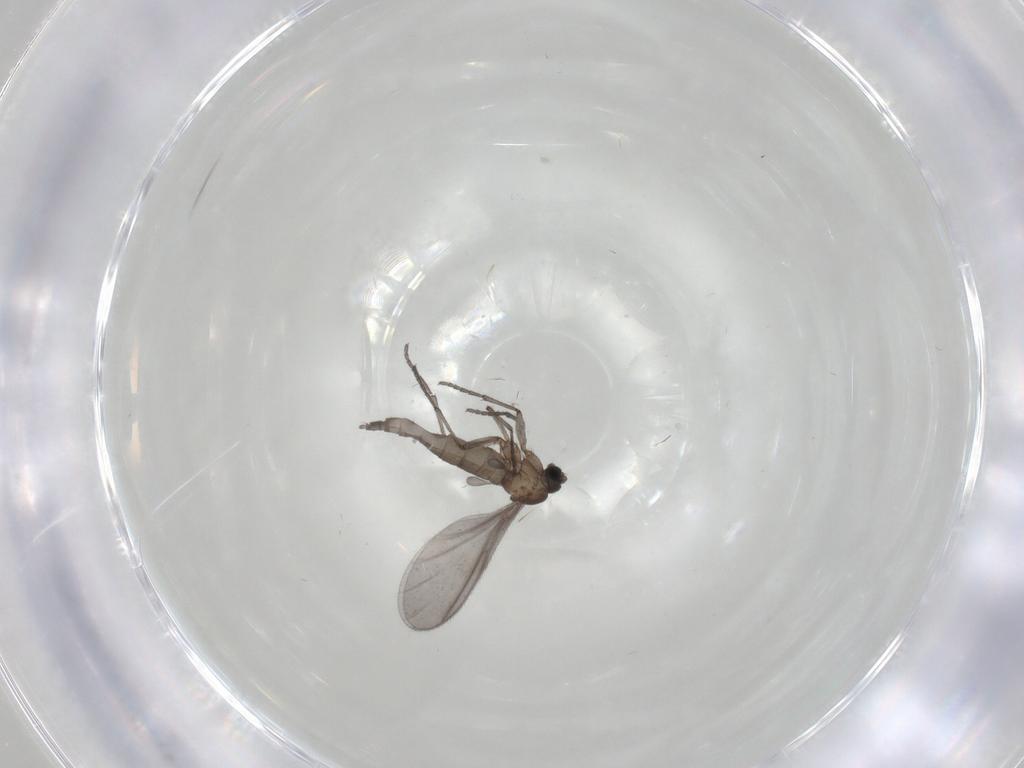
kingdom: Animalia
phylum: Arthropoda
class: Insecta
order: Diptera
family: Sciaridae
